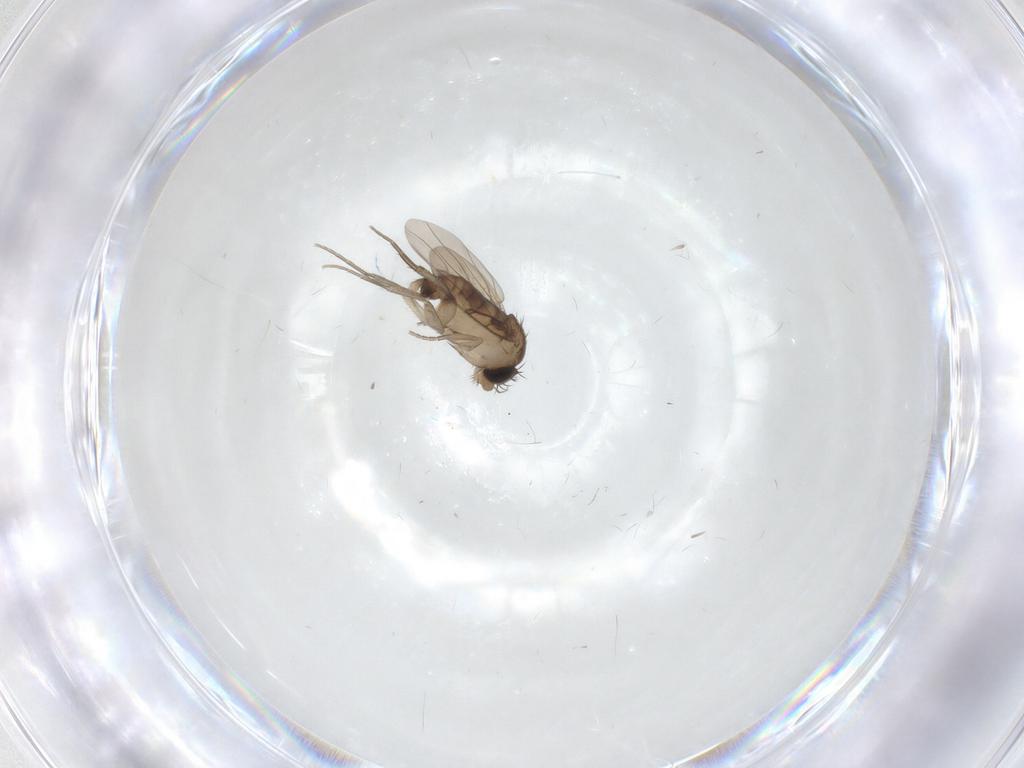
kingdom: Animalia
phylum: Arthropoda
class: Insecta
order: Diptera
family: Phoridae
